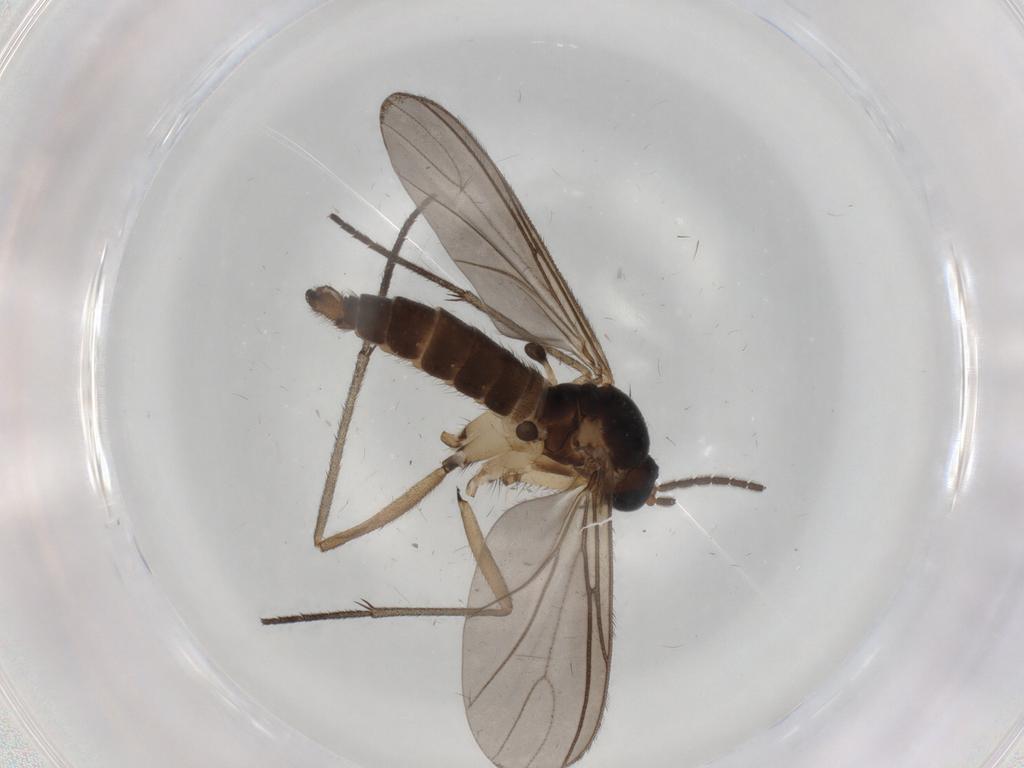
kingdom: Animalia
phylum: Arthropoda
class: Insecta
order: Diptera
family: Sciaridae
